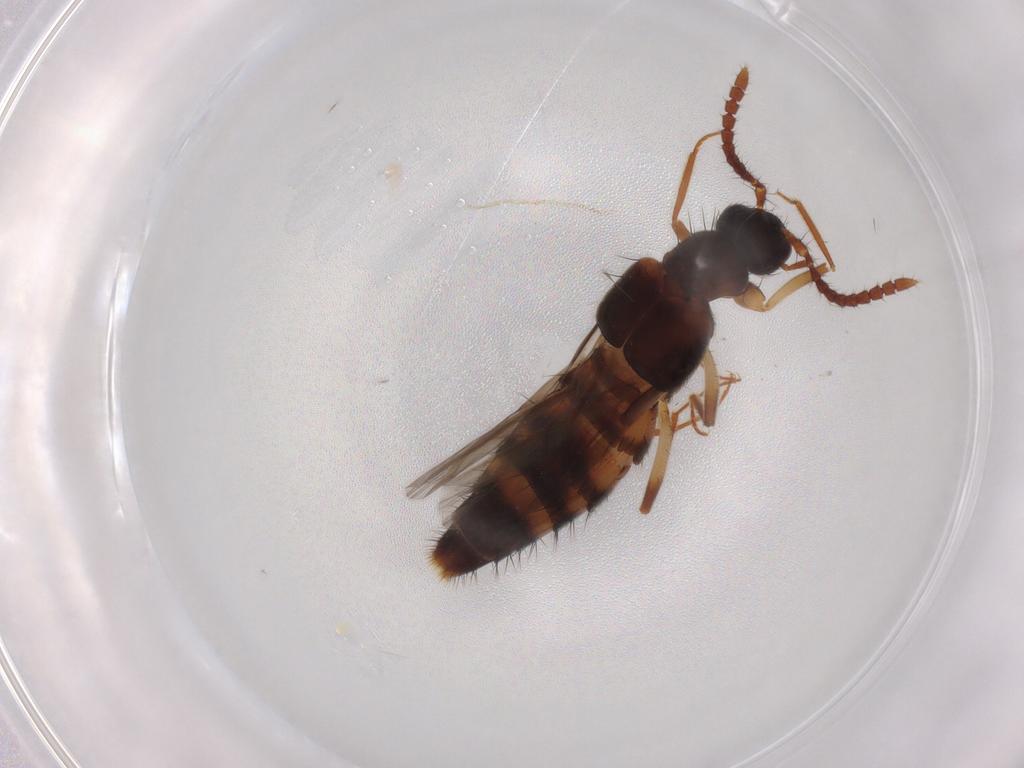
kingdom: Animalia
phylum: Arthropoda
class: Insecta
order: Coleoptera
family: Staphylinidae
